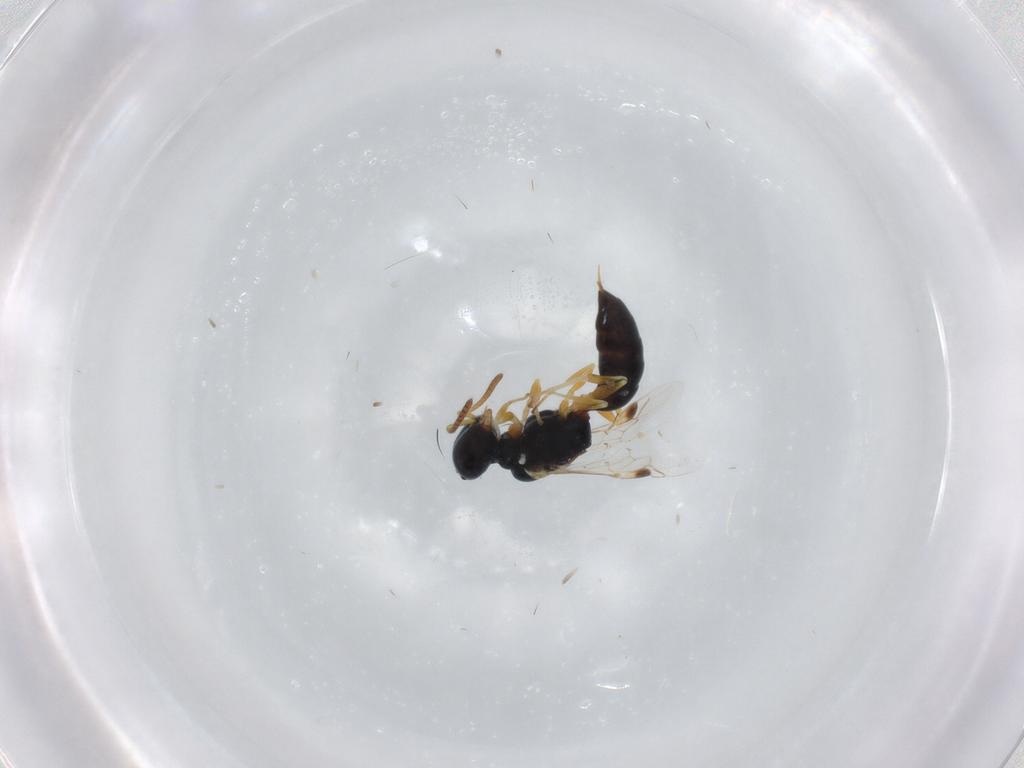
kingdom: Animalia
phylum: Arthropoda
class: Insecta
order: Hymenoptera
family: Pemphredonidae
